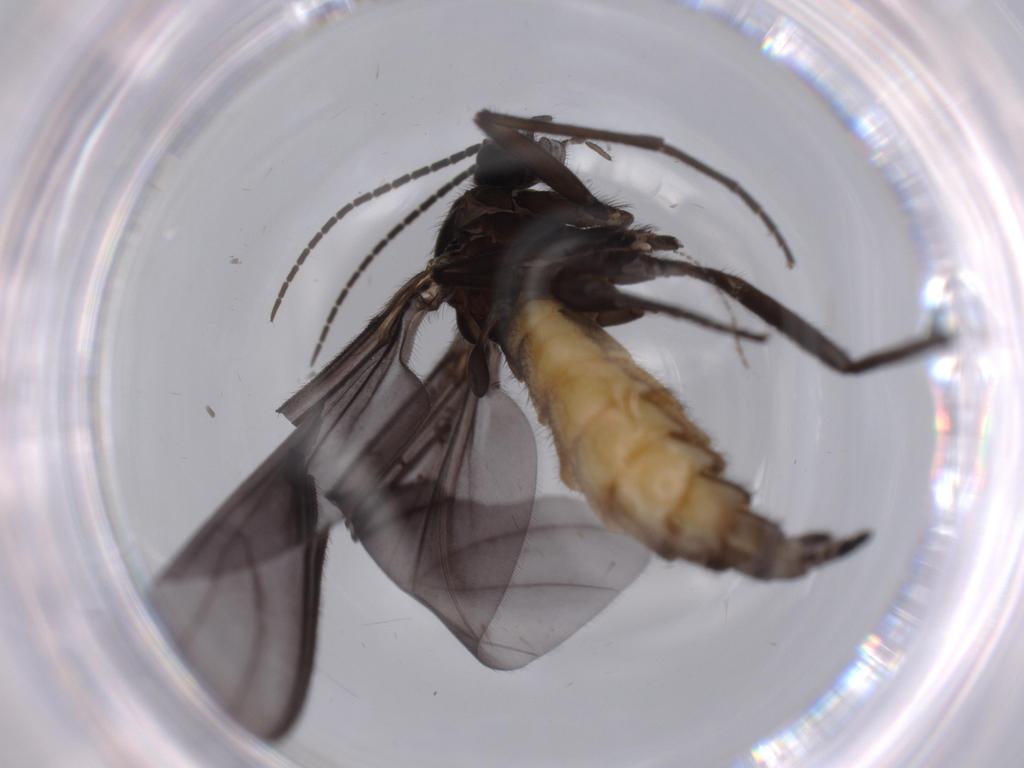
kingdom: Animalia
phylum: Arthropoda
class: Insecta
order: Diptera
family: Sciaridae
